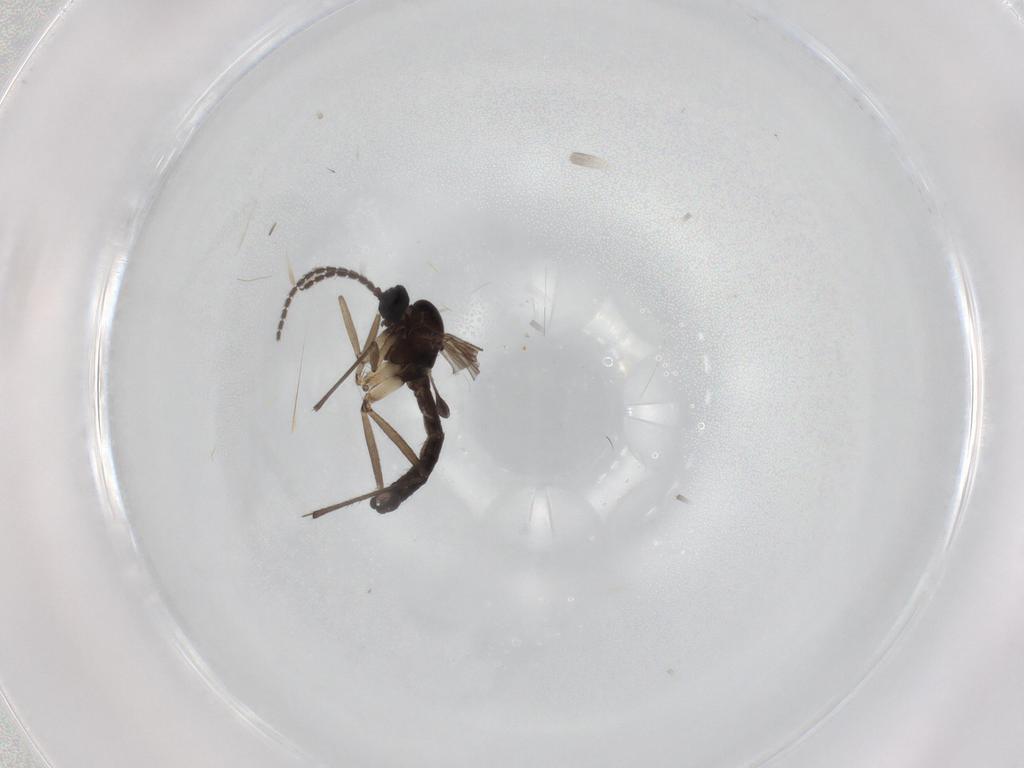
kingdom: Animalia
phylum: Arthropoda
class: Insecta
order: Diptera
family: Sciaridae
